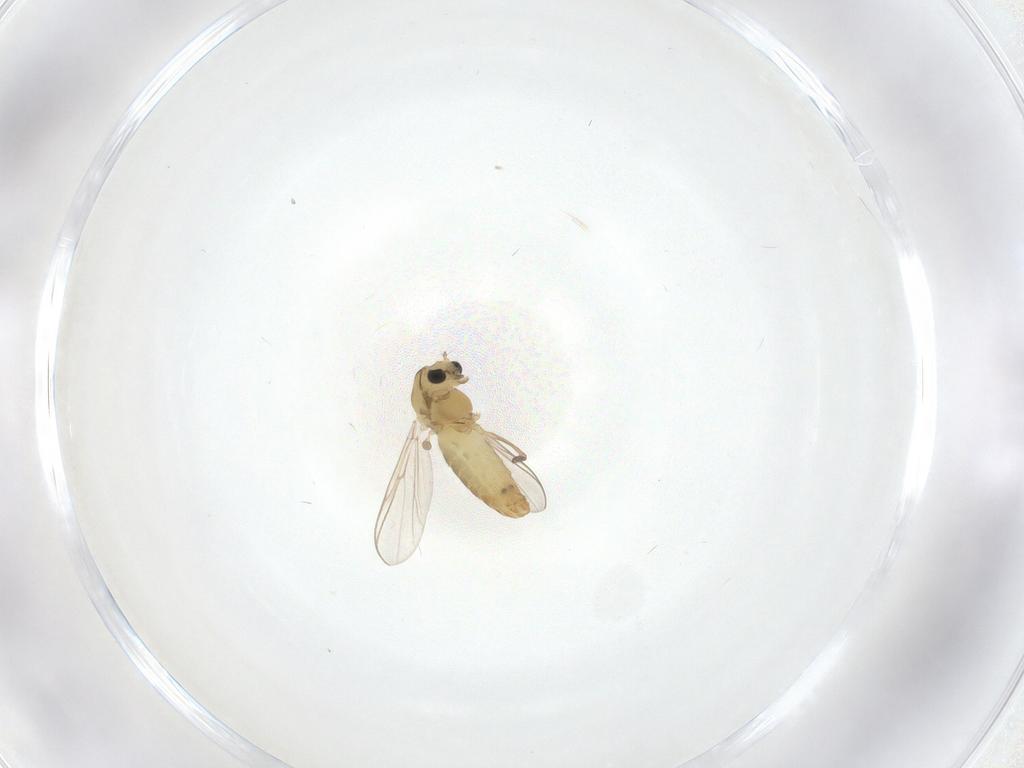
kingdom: Animalia
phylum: Arthropoda
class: Insecta
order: Diptera
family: Chironomidae
